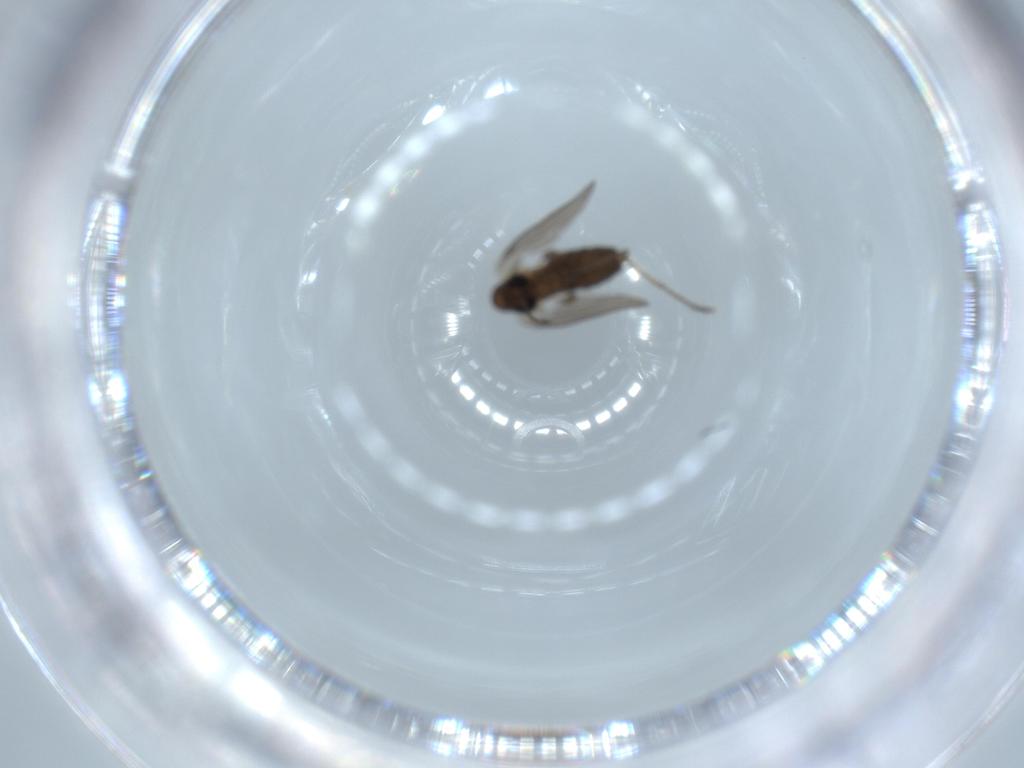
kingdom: Animalia
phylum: Arthropoda
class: Insecta
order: Diptera
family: Psychodidae
